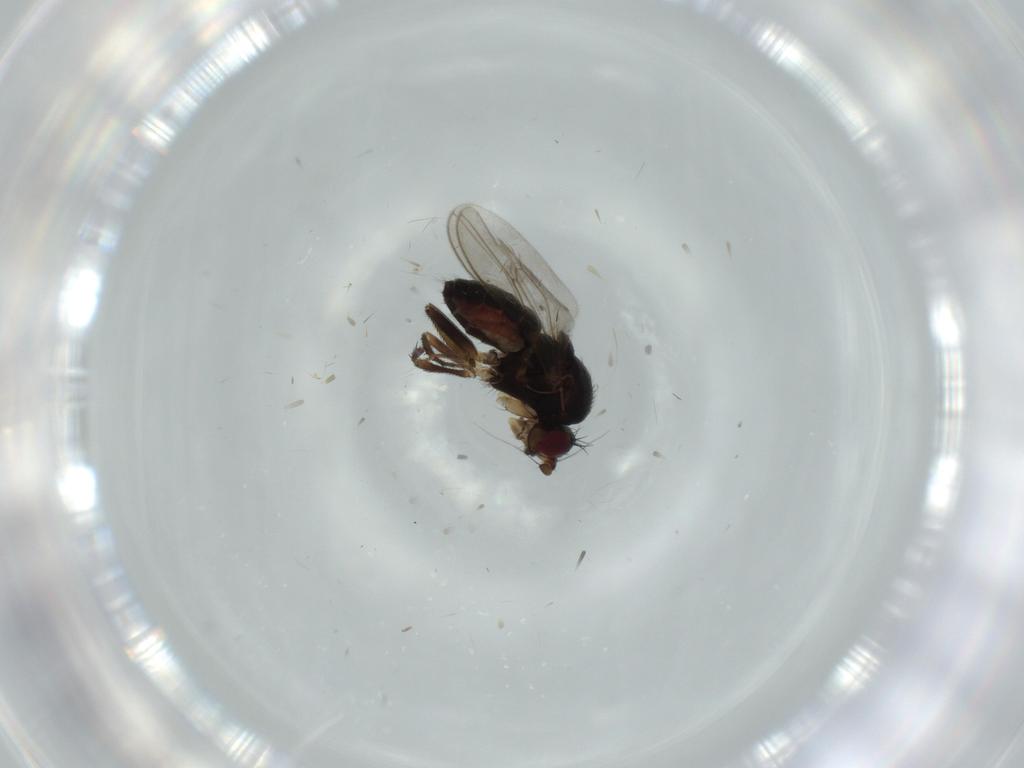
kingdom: Animalia
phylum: Arthropoda
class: Insecta
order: Diptera
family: Sphaeroceridae
